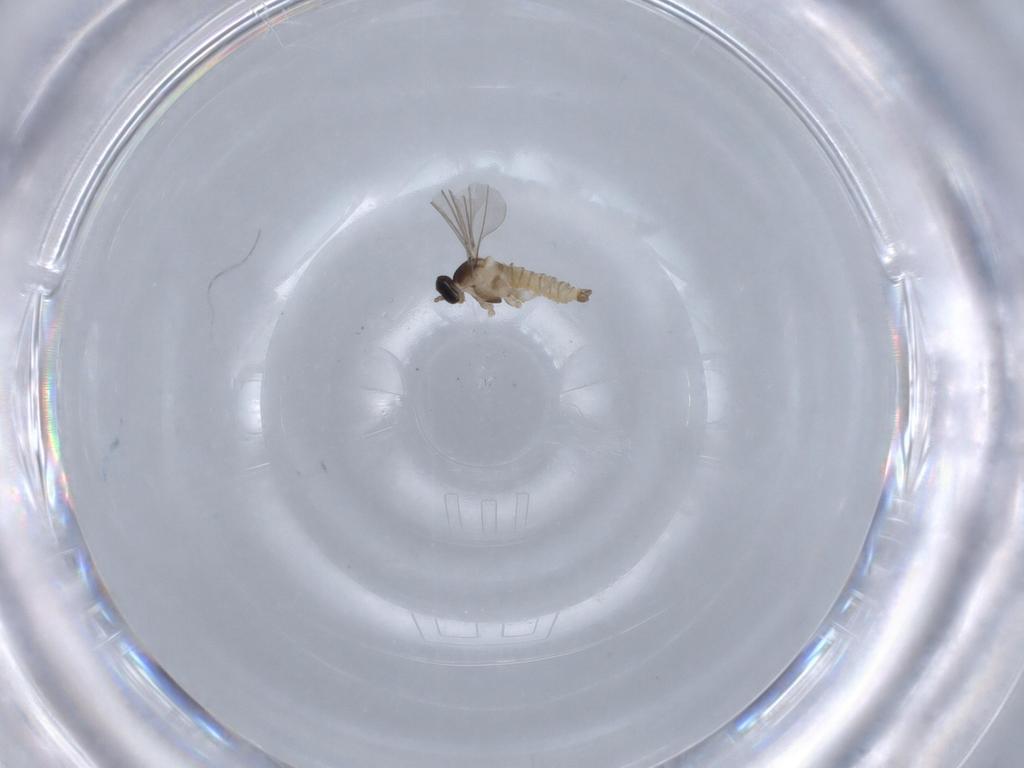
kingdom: Animalia
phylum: Arthropoda
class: Insecta
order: Diptera
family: Cecidomyiidae
